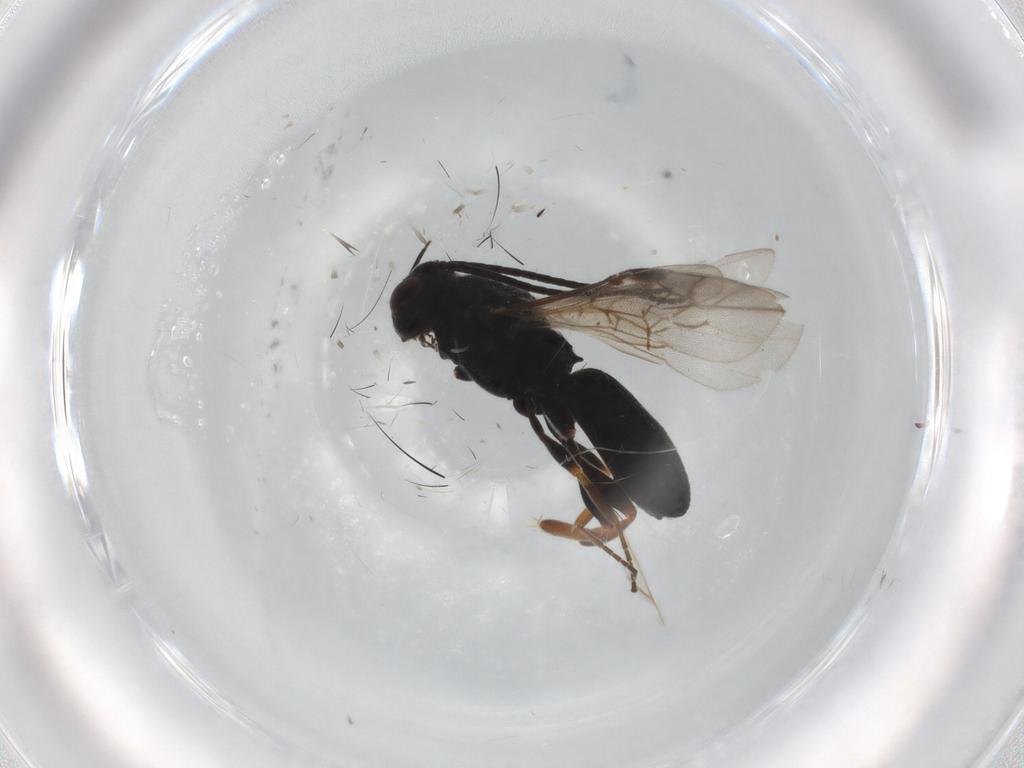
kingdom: Animalia
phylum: Arthropoda
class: Insecta
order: Hymenoptera
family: Braconidae
